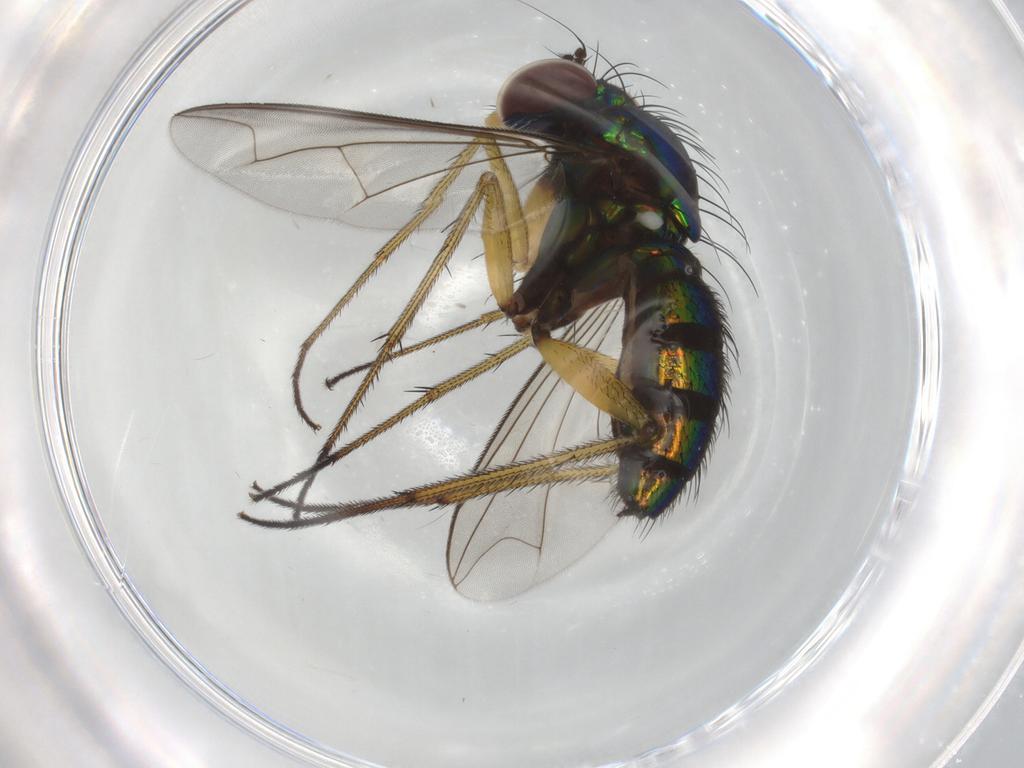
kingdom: Animalia
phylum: Arthropoda
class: Insecta
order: Diptera
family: Dolichopodidae
